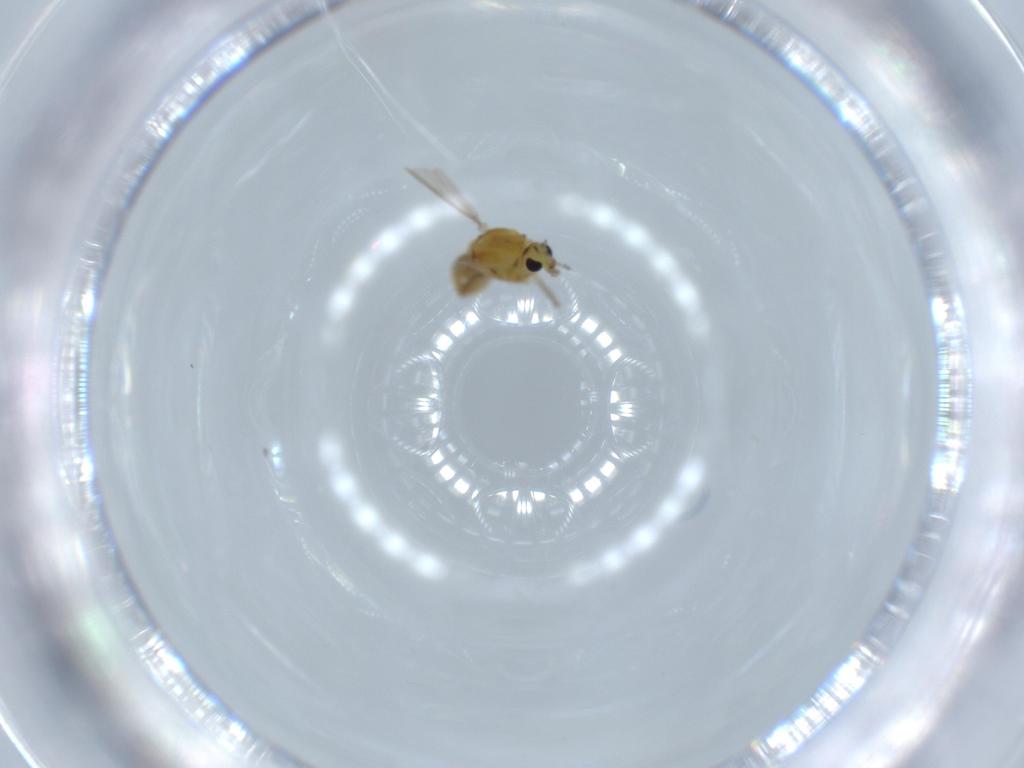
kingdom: Animalia
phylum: Arthropoda
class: Insecta
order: Diptera
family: Chironomidae
